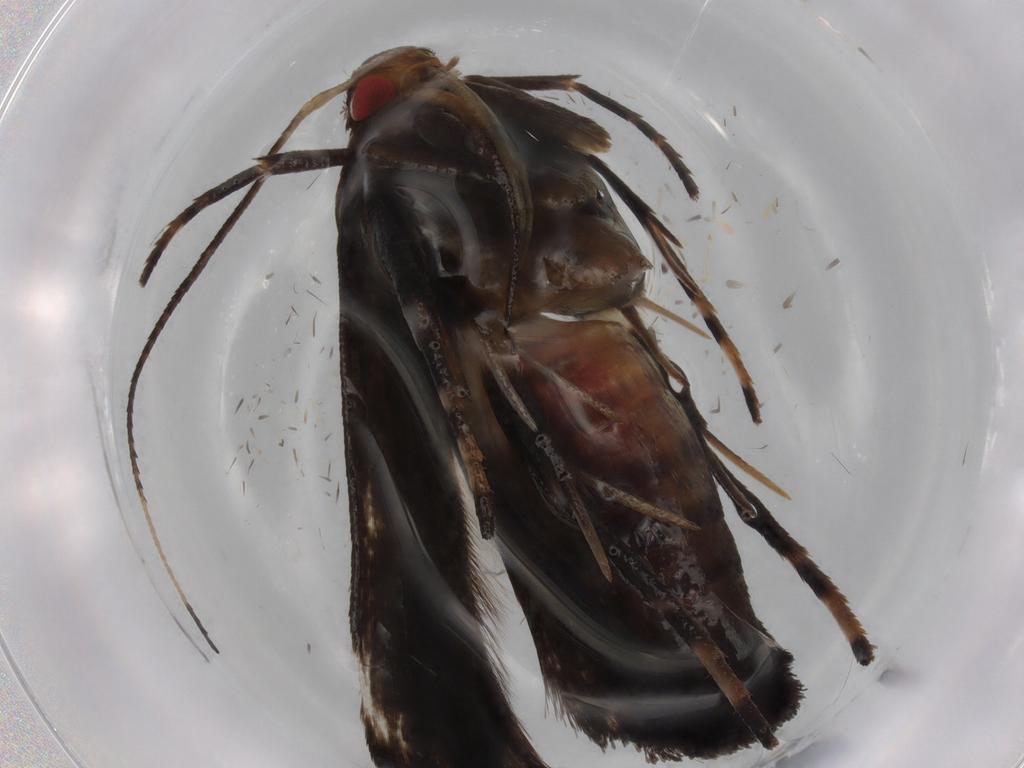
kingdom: Animalia
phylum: Arthropoda
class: Insecta
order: Lepidoptera
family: Gelechiidae
